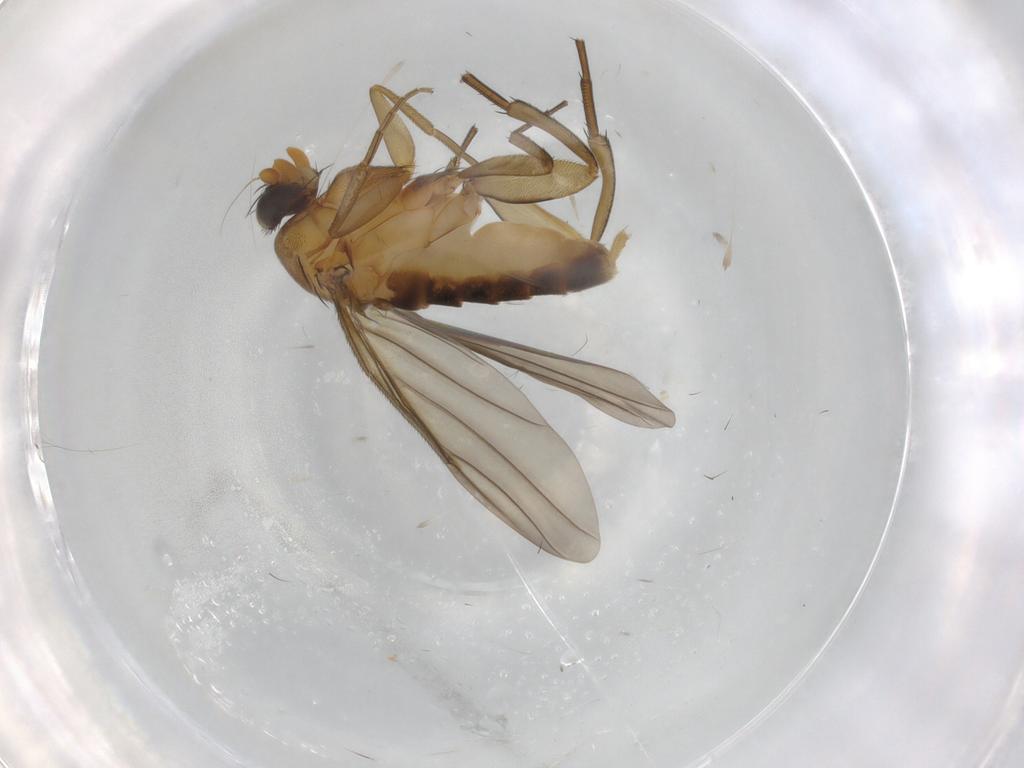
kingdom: Animalia
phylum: Arthropoda
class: Insecta
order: Diptera
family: Phoridae
